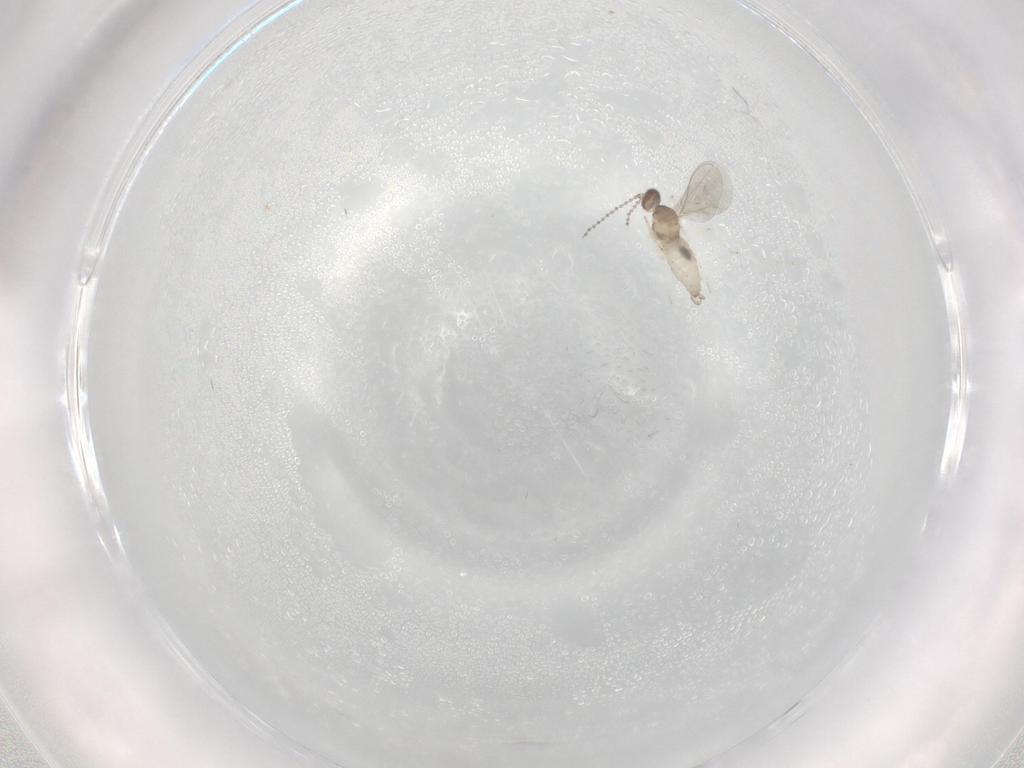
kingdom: Animalia
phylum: Arthropoda
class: Insecta
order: Diptera
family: Sphaeroceridae
